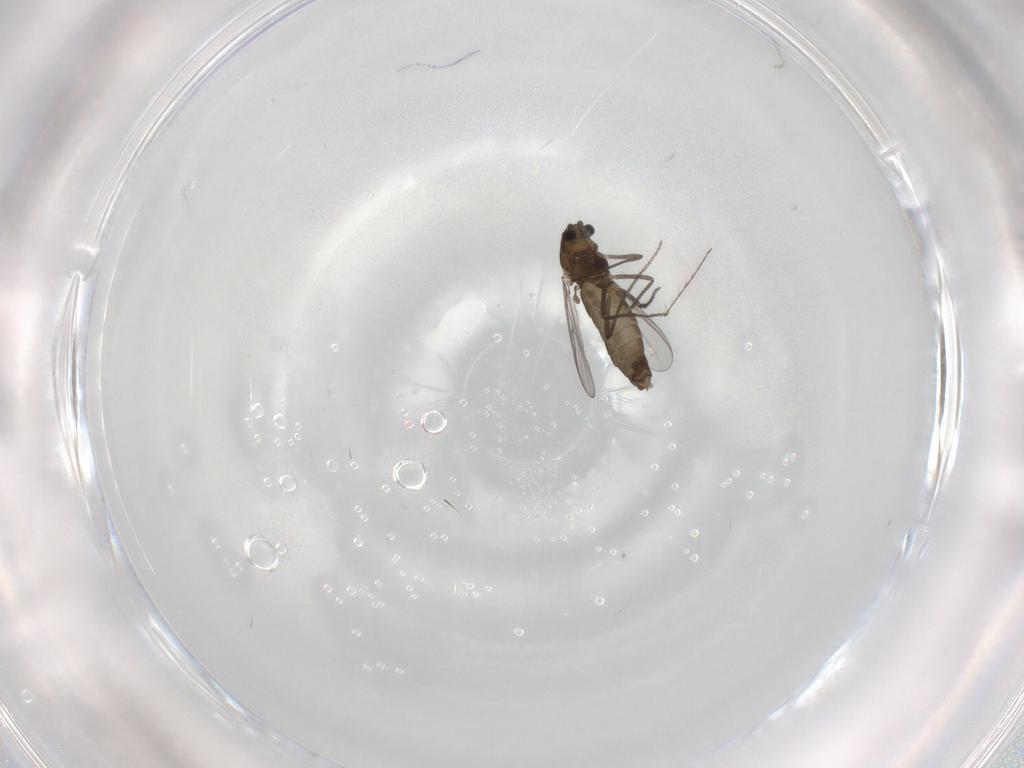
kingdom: Animalia
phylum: Arthropoda
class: Insecta
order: Diptera
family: Chironomidae
